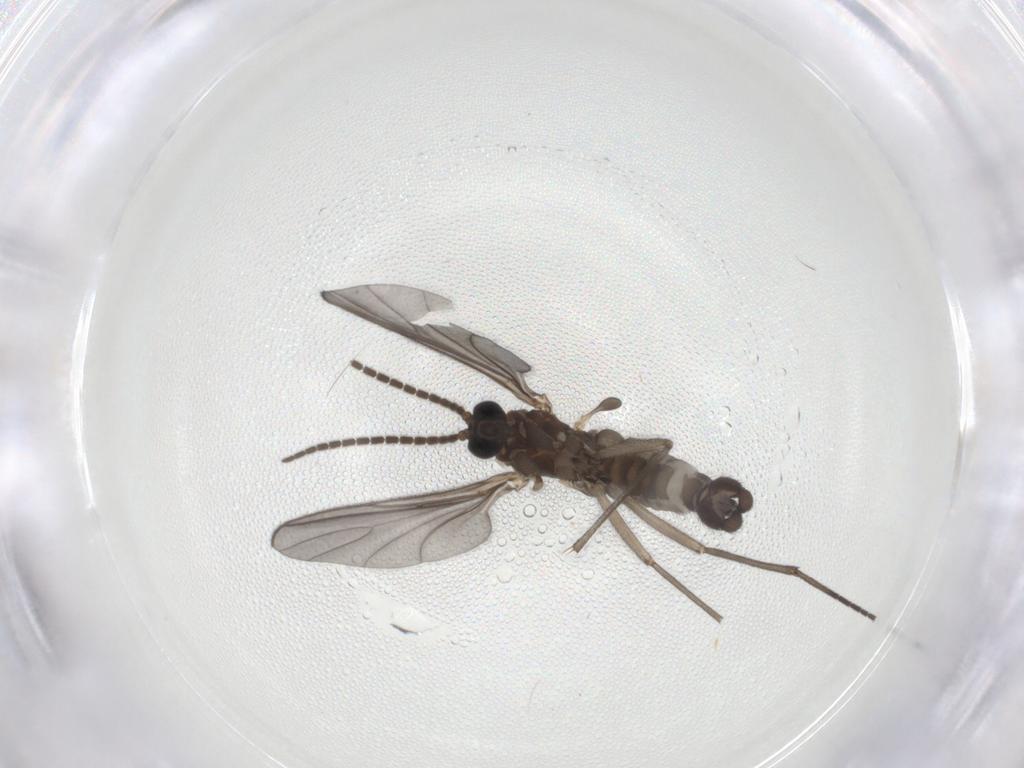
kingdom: Animalia
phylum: Arthropoda
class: Insecta
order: Diptera
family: Sciaridae
